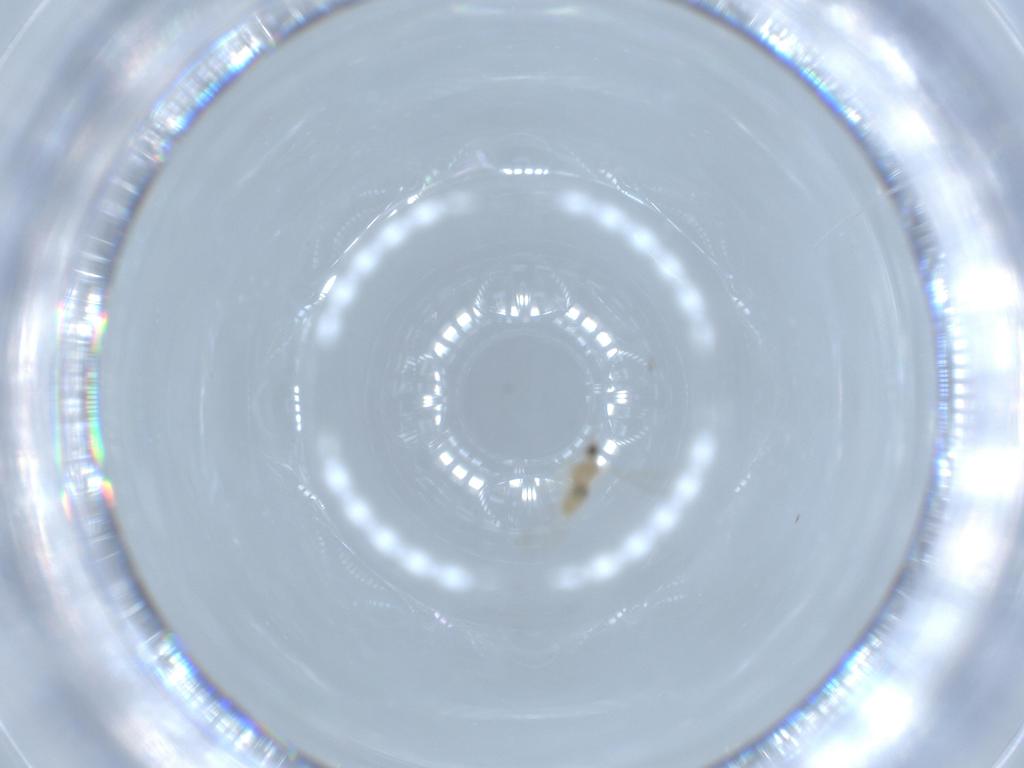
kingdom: Animalia
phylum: Arthropoda
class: Insecta
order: Diptera
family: Cecidomyiidae
